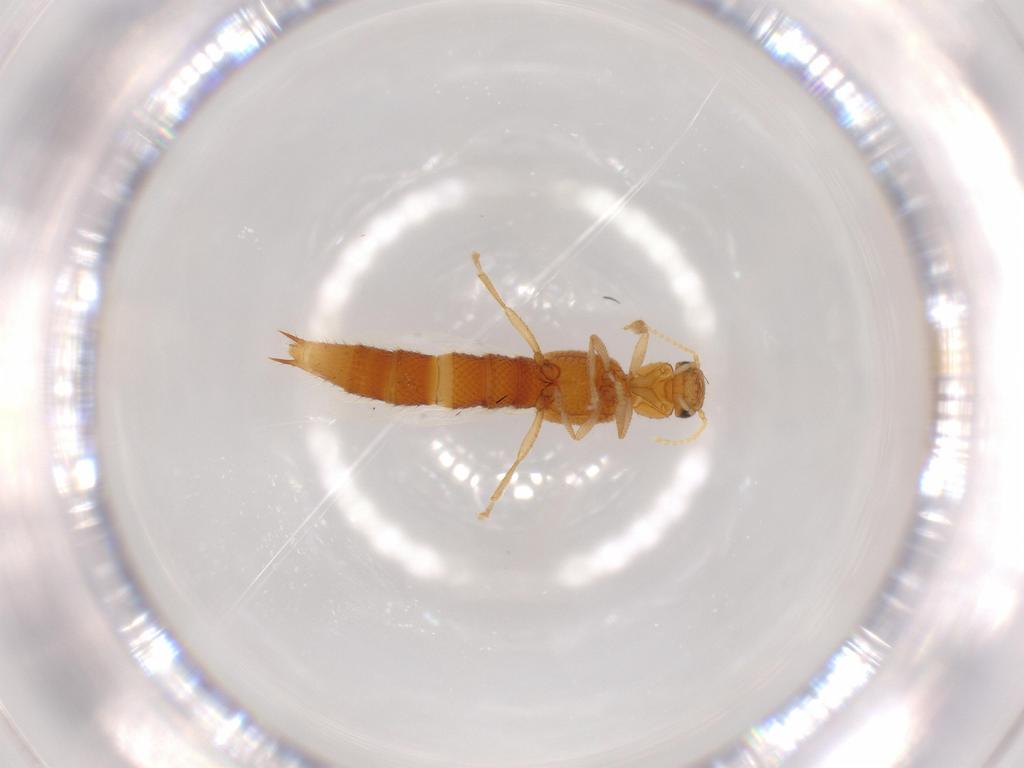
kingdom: Animalia
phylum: Arthropoda
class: Insecta
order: Coleoptera
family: Staphylinidae
